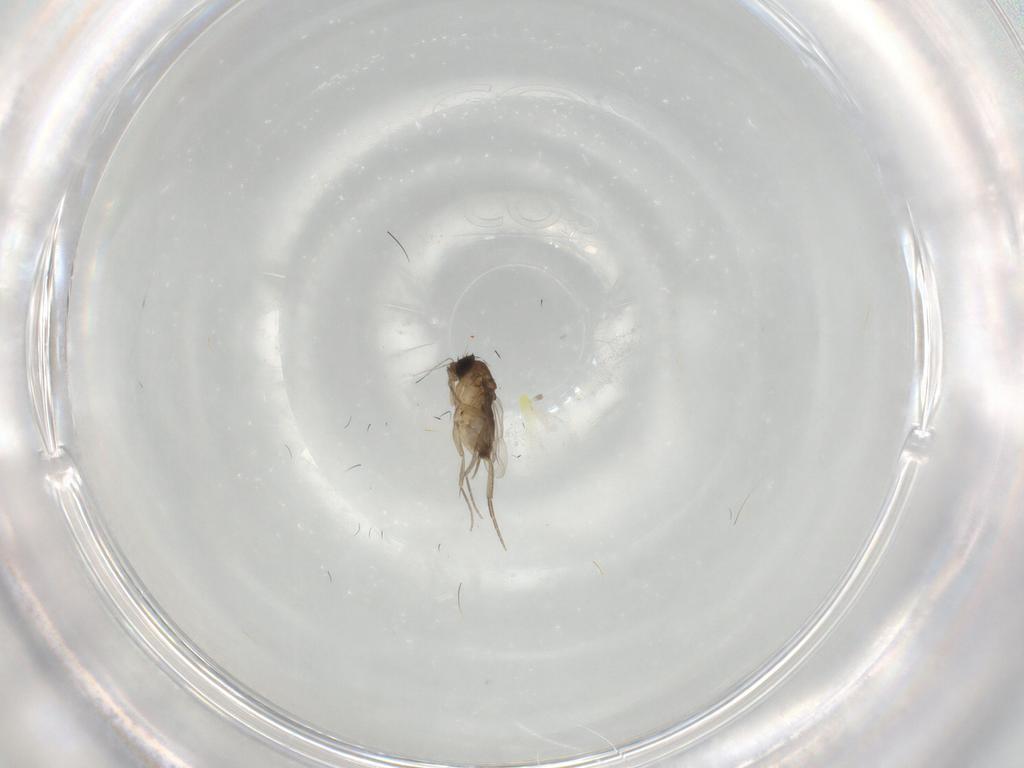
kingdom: Animalia
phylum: Arthropoda
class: Insecta
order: Diptera
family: Phoridae
